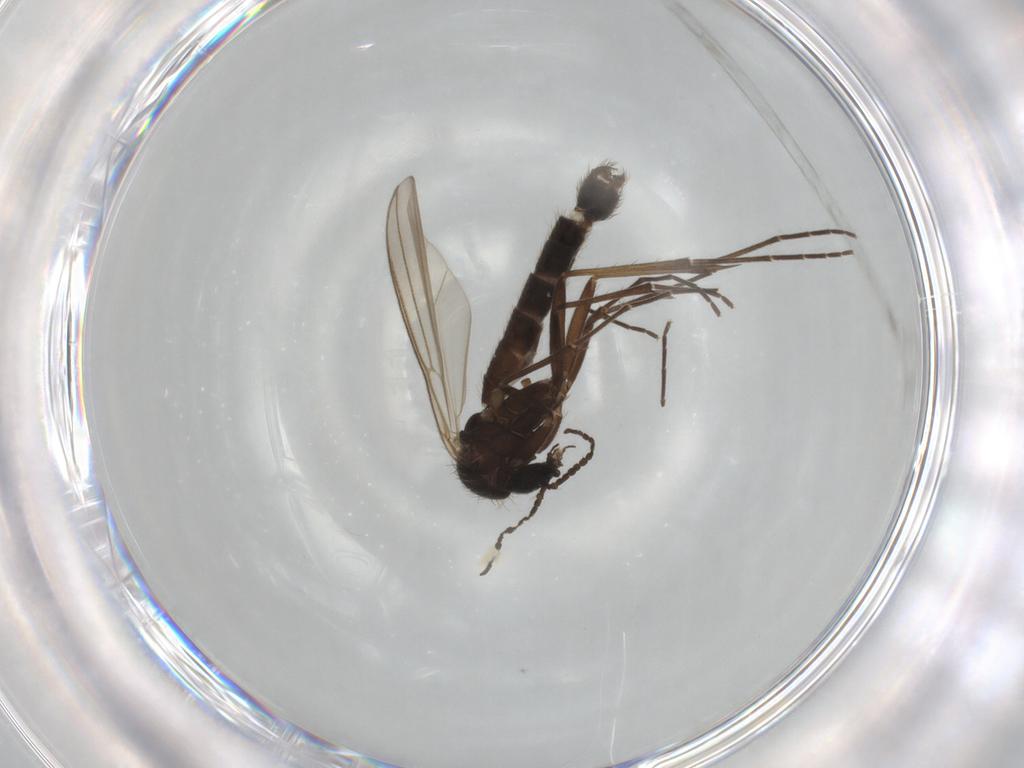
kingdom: Animalia
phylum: Arthropoda
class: Insecta
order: Diptera
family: Mycetophilidae
